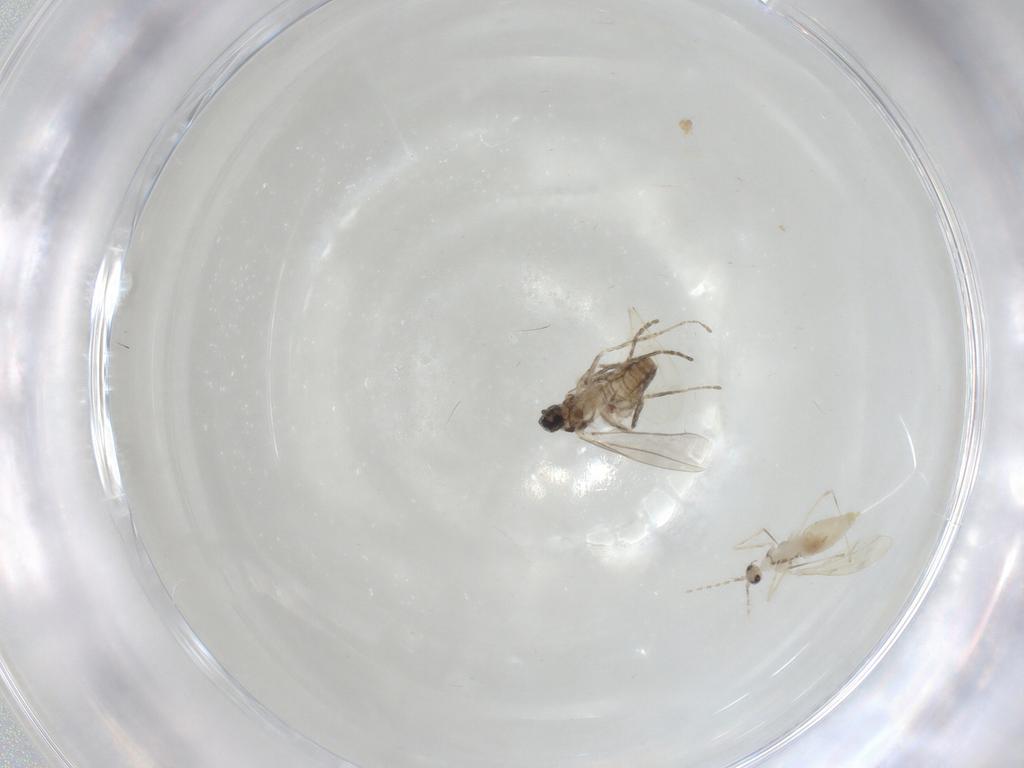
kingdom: Animalia
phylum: Arthropoda
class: Insecta
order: Diptera
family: Cecidomyiidae
